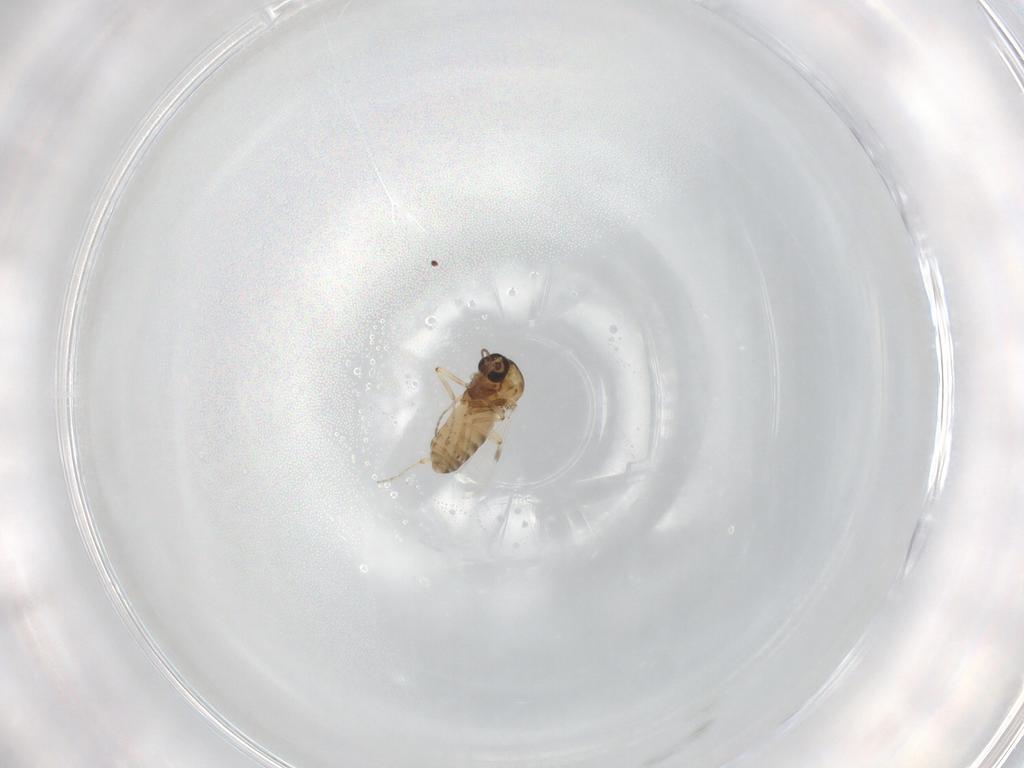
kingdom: Animalia
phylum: Arthropoda
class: Insecta
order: Diptera
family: Ceratopogonidae
